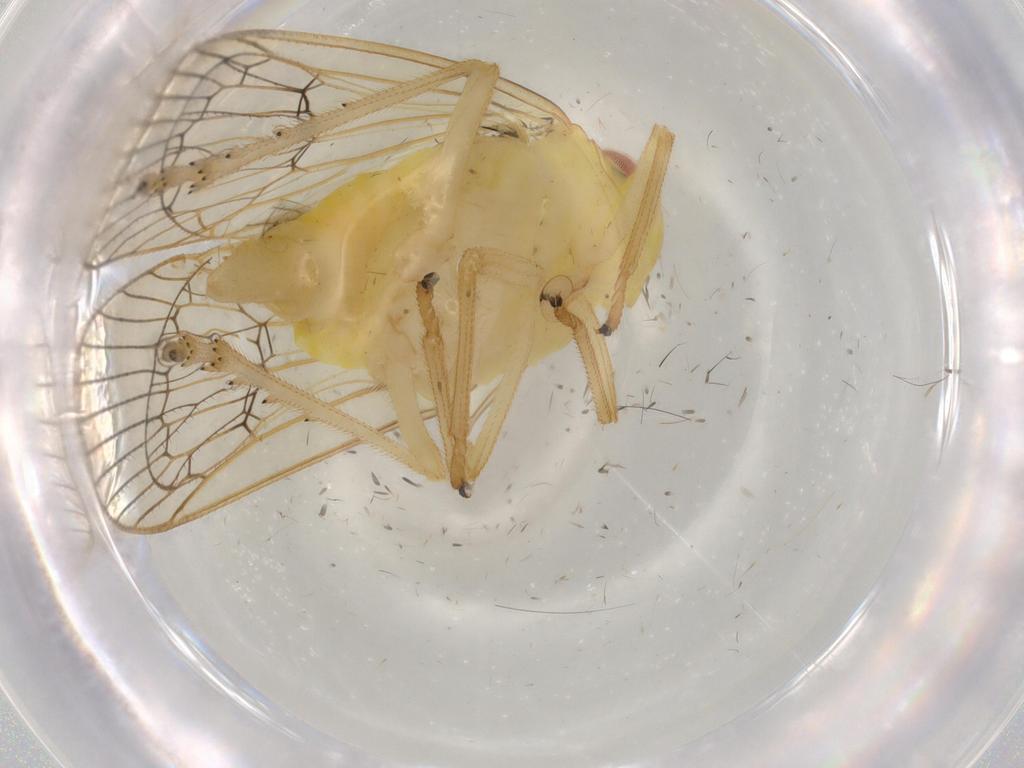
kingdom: Animalia
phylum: Arthropoda
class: Insecta
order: Hemiptera
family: Tropiduchidae
